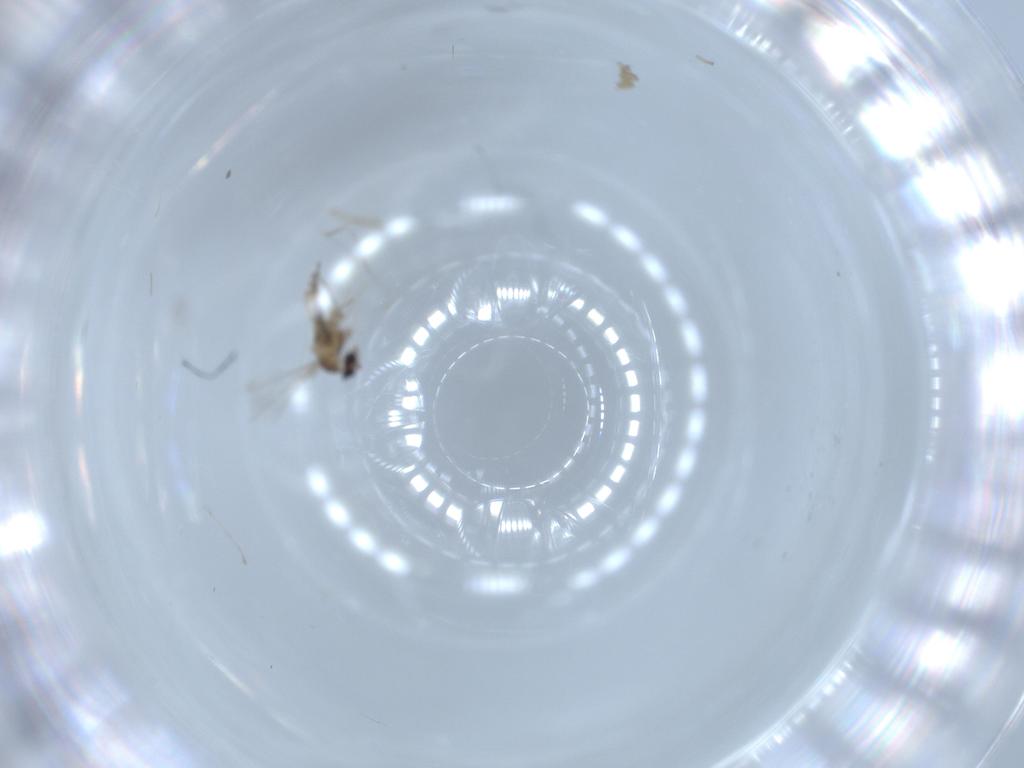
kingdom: Animalia
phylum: Arthropoda
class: Insecta
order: Diptera
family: Cecidomyiidae
